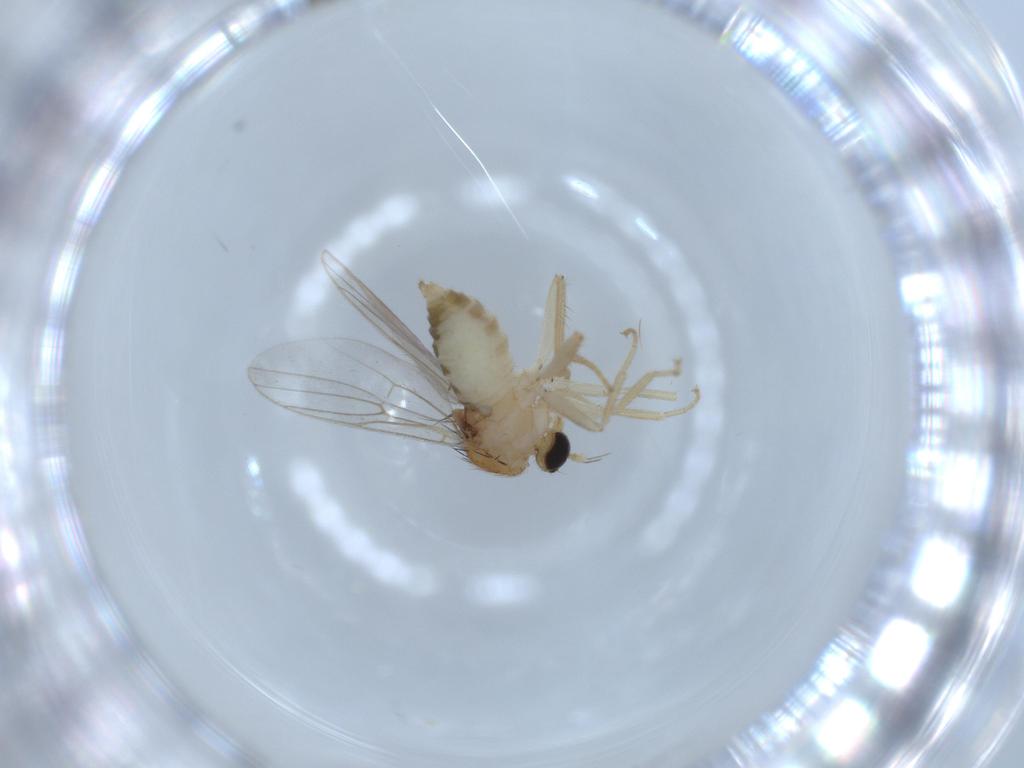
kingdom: Animalia
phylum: Arthropoda
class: Insecta
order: Diptera
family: Hybotidae
